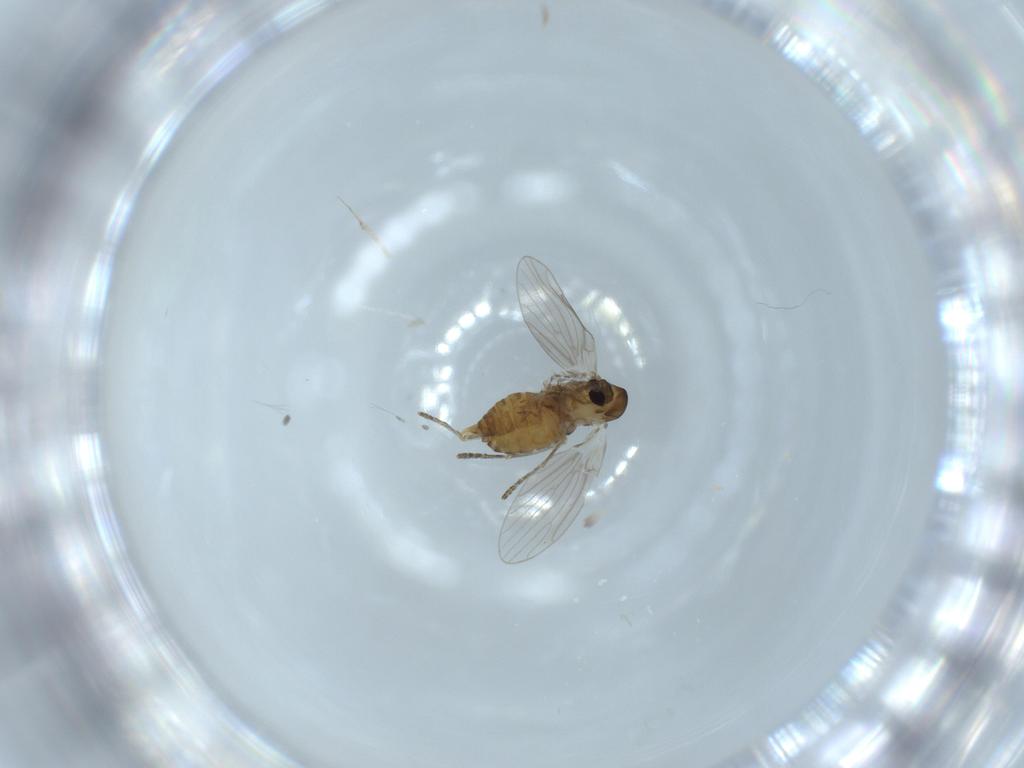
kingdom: Animalia
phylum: Arthropoda
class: Insecta
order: Diptera
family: Psychodidae
